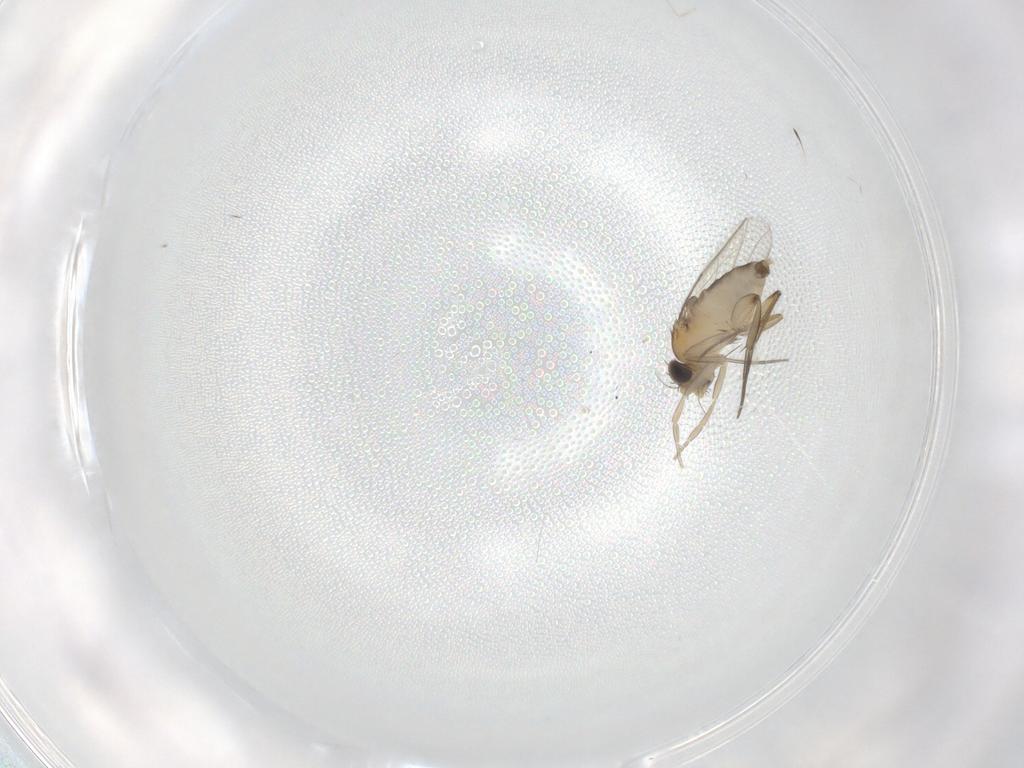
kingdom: Animalia
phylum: Arthropoda
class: Insecta
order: Diptera
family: Phoridae
